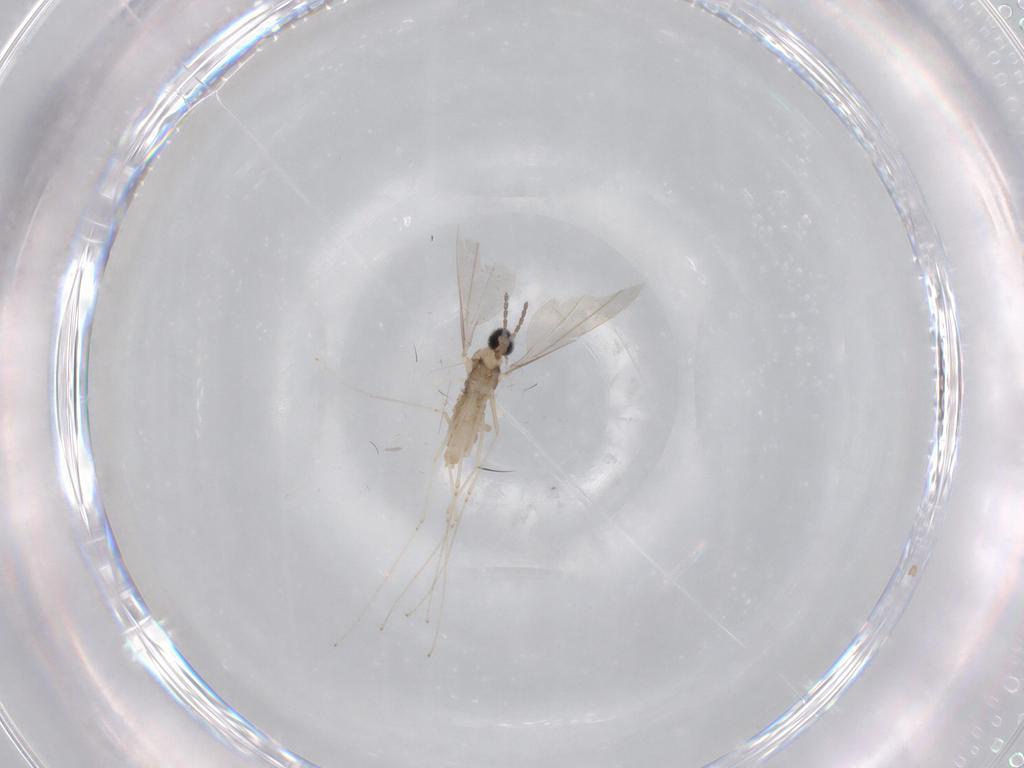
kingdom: Animalia
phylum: Arthropoda
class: Insecta
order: Diptera
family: Cecidomyiidae
